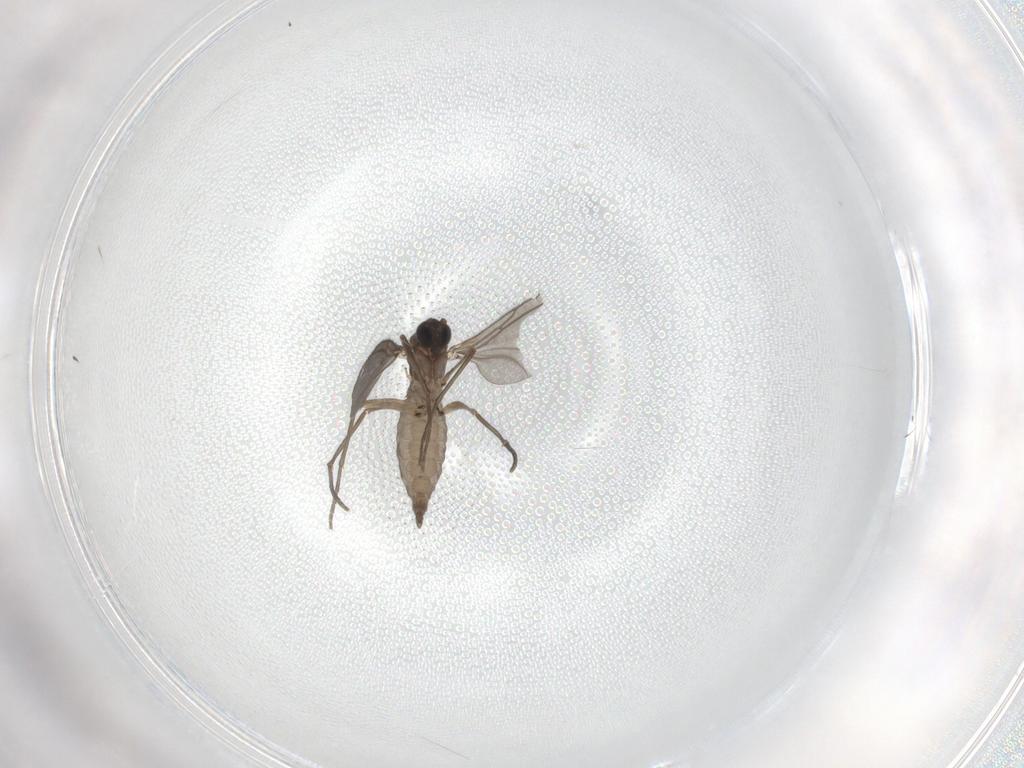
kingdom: Animalia
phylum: Arthropoda
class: Insecta
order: Diptera
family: Sciaridae
